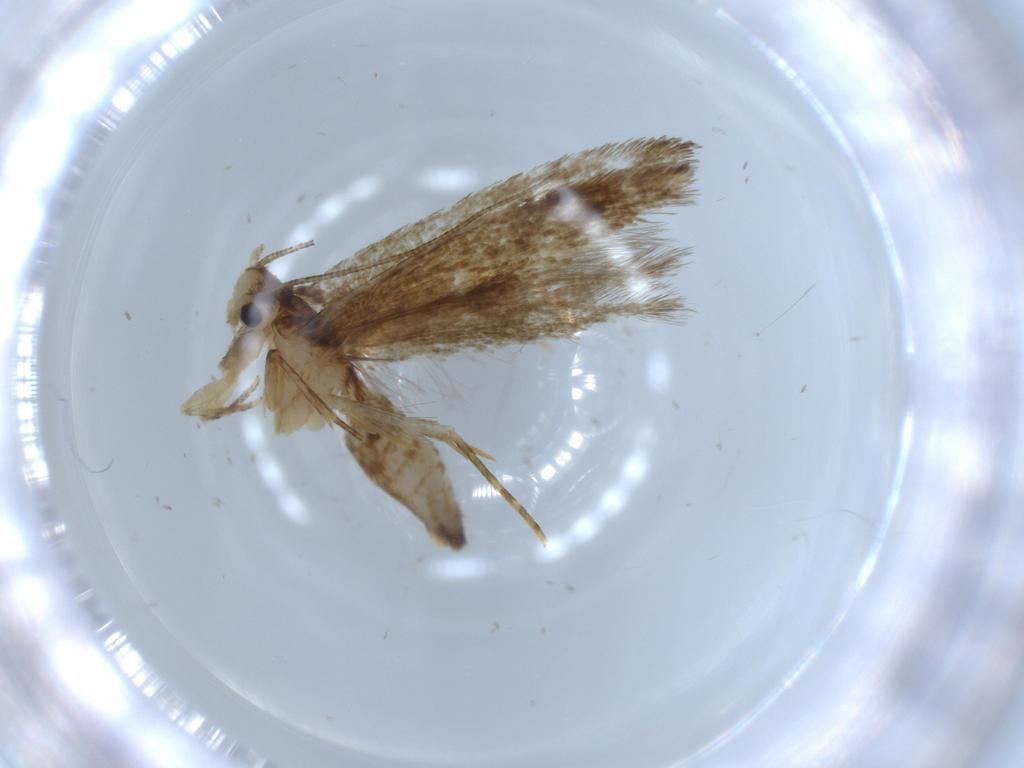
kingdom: Animalia
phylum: Arthropoda
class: Insecta
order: Lepidoptera
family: Tineidae
